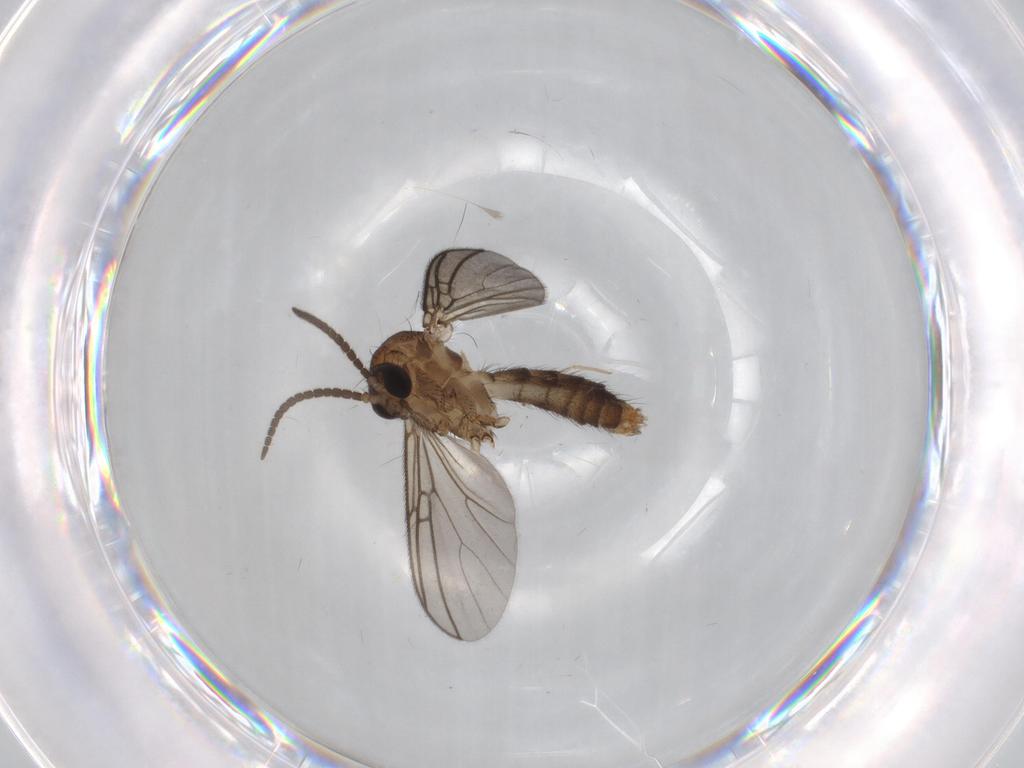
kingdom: Animalia
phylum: Arthropoda
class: Insecta
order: Diptera
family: Cecidomyiidae
